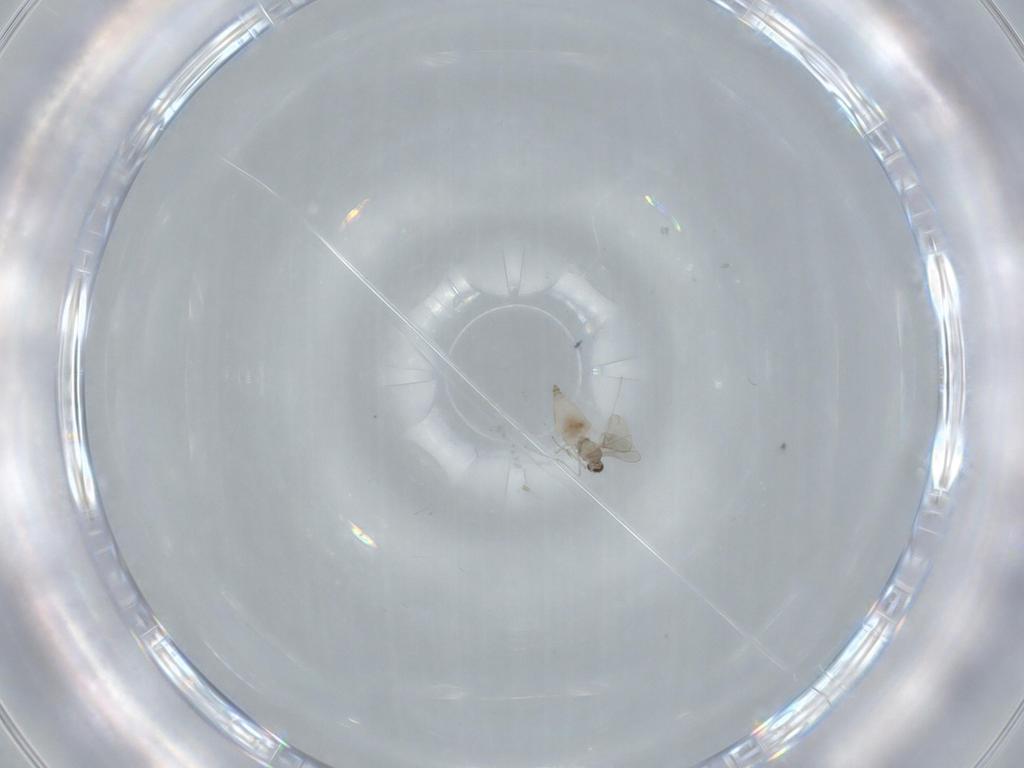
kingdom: Animalia
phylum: Arthropoda
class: Insecta
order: Diptera
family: Cecidomyiidae
